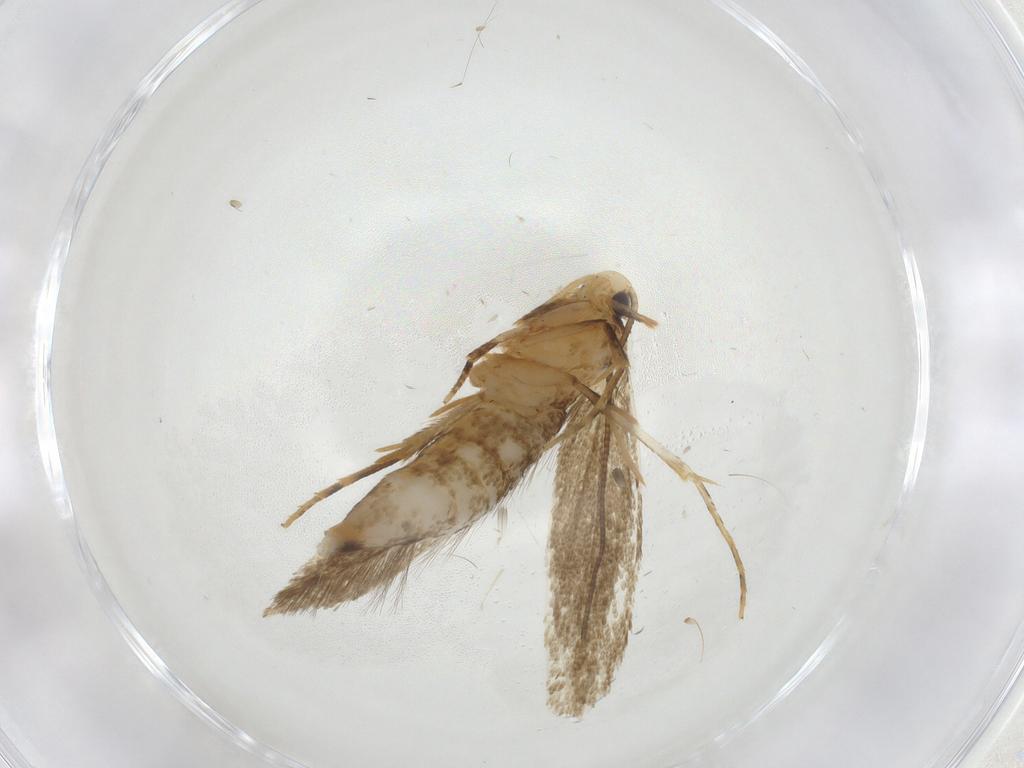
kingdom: Animalia
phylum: Arthropoda
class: Insecta
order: Lepidoptera
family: Tineidae
